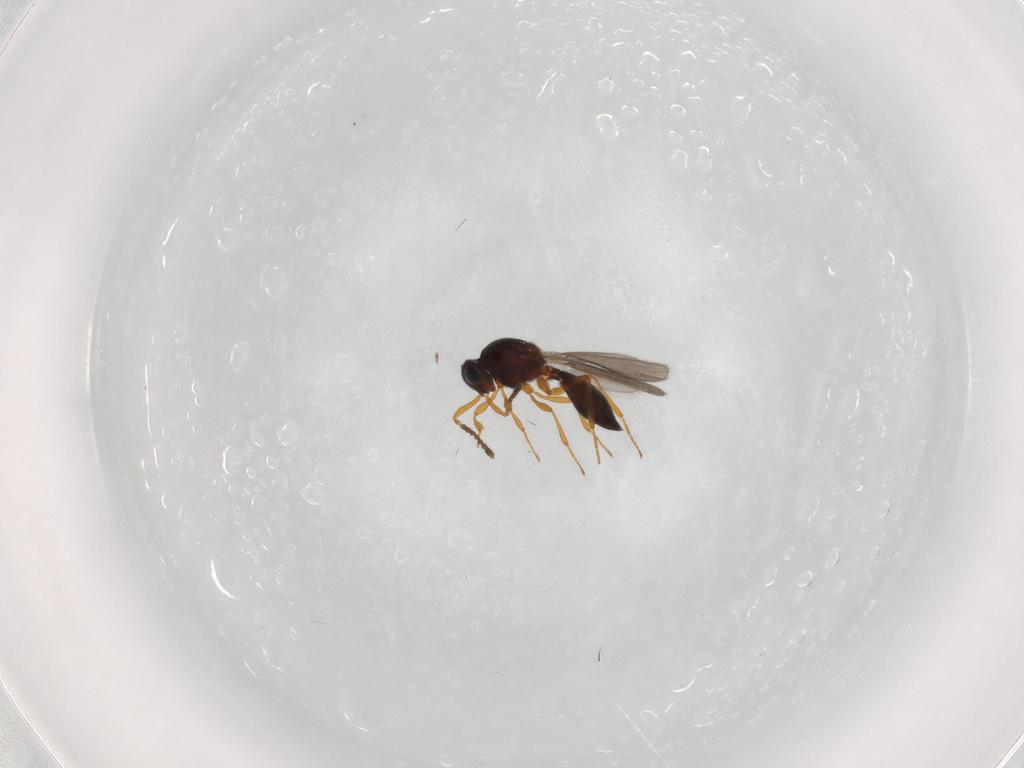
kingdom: Animalia
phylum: Arthropoda
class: Insecta
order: Hymenoptera
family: Platygastridae
